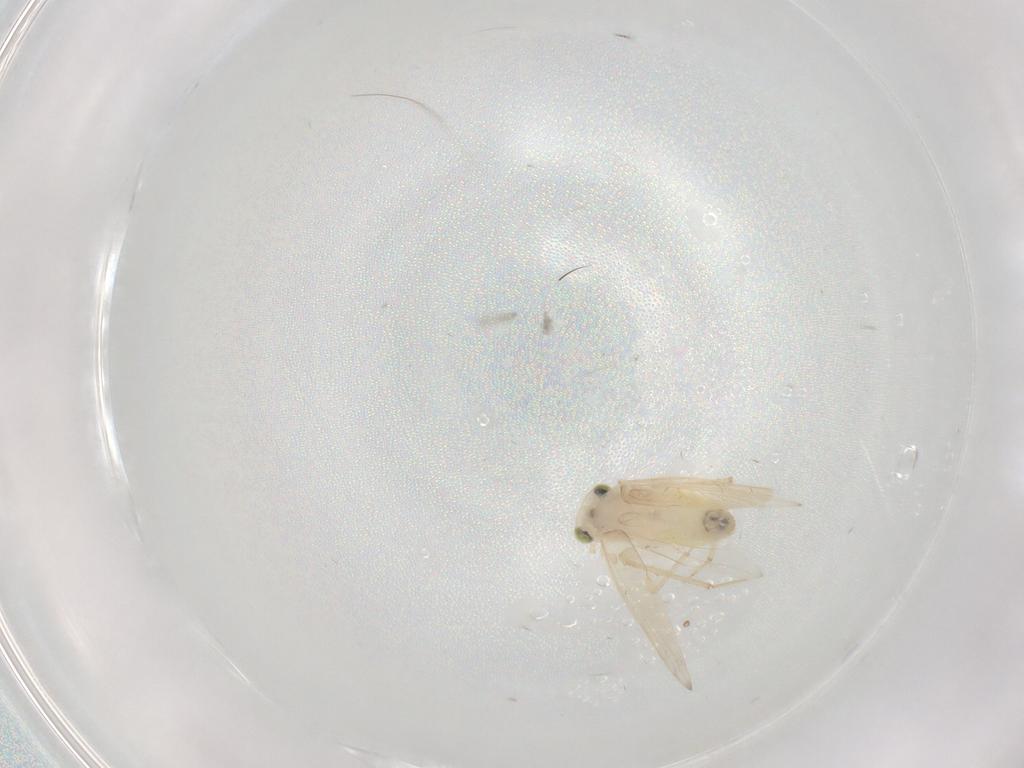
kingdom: Animalia
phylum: Arthropoda
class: Insecta
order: Psocodea
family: Lepidopsocidae
